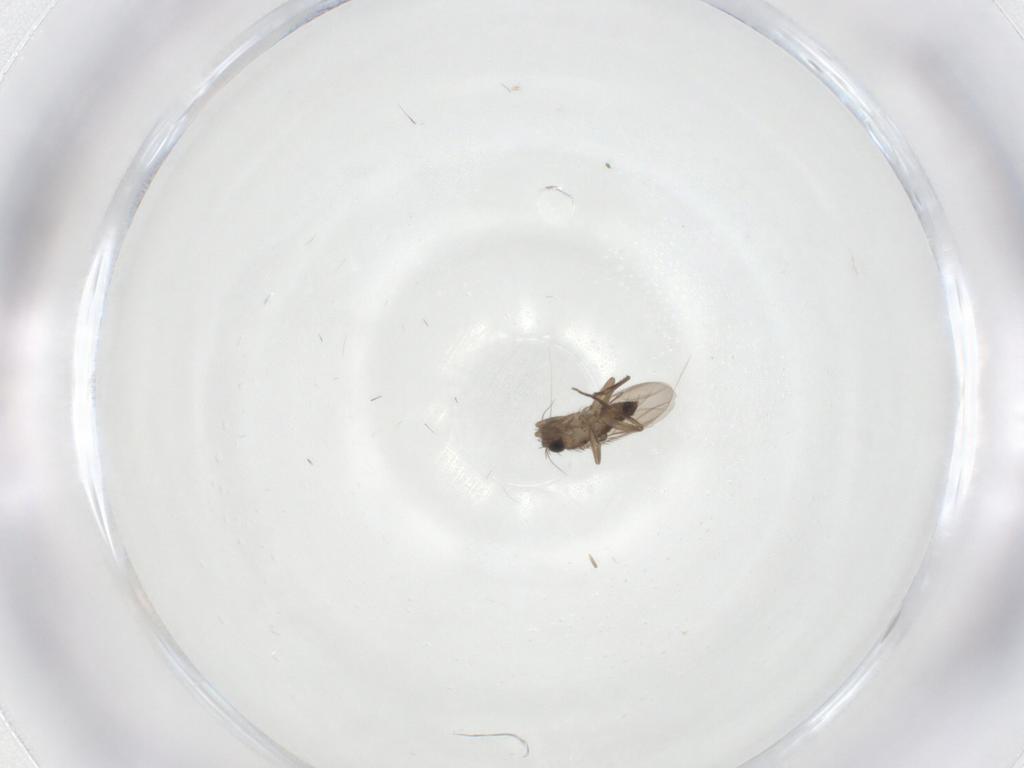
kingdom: Animalia
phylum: Arthropoda
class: Insecta
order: Diptera
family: Phoridae
